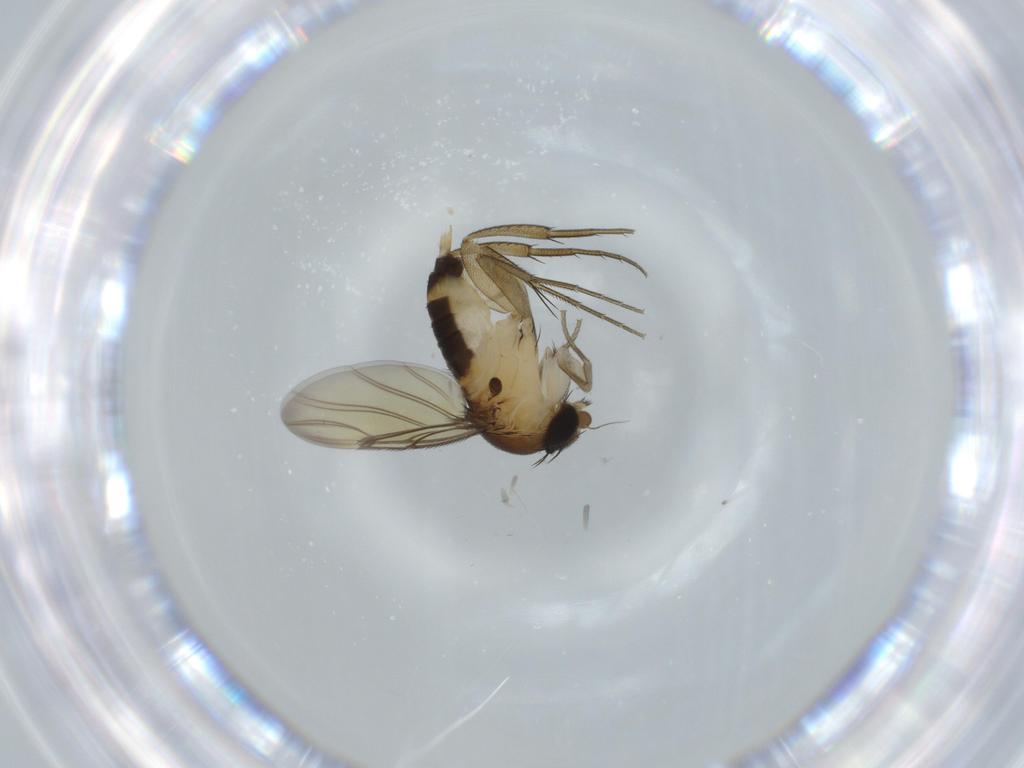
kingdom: Animalia
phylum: Arthropoda
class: Insecta
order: Diptera
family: Phoridae
